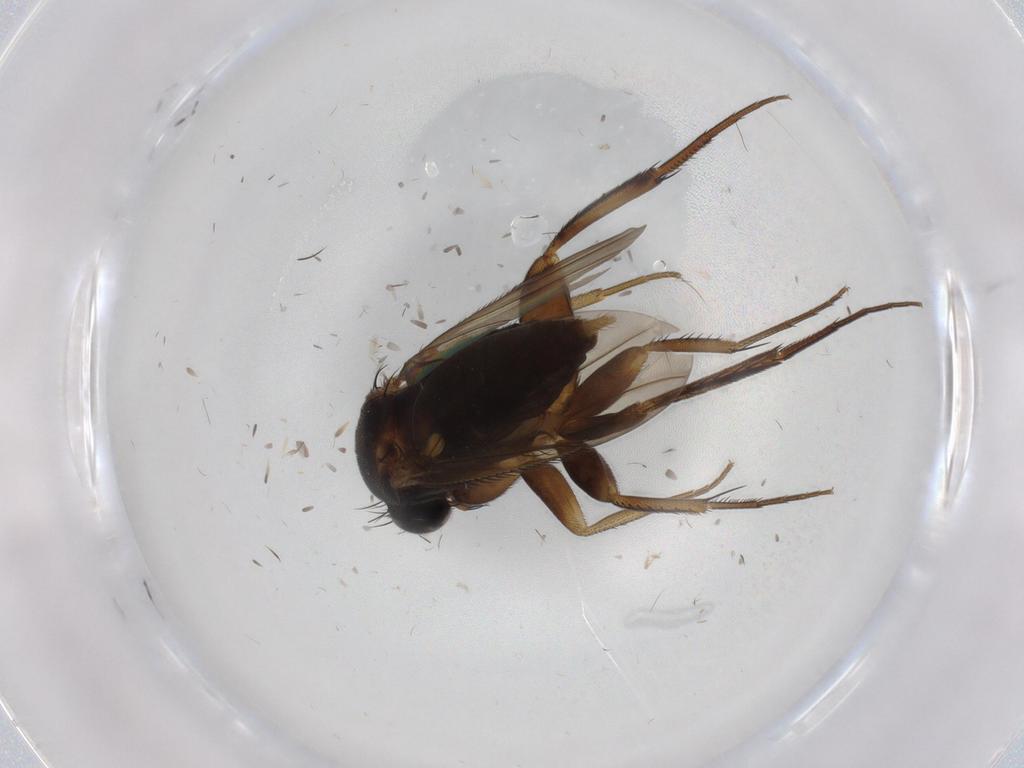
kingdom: Animalia
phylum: Arthropoda
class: Insecta
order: Diptera
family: Phoridae
